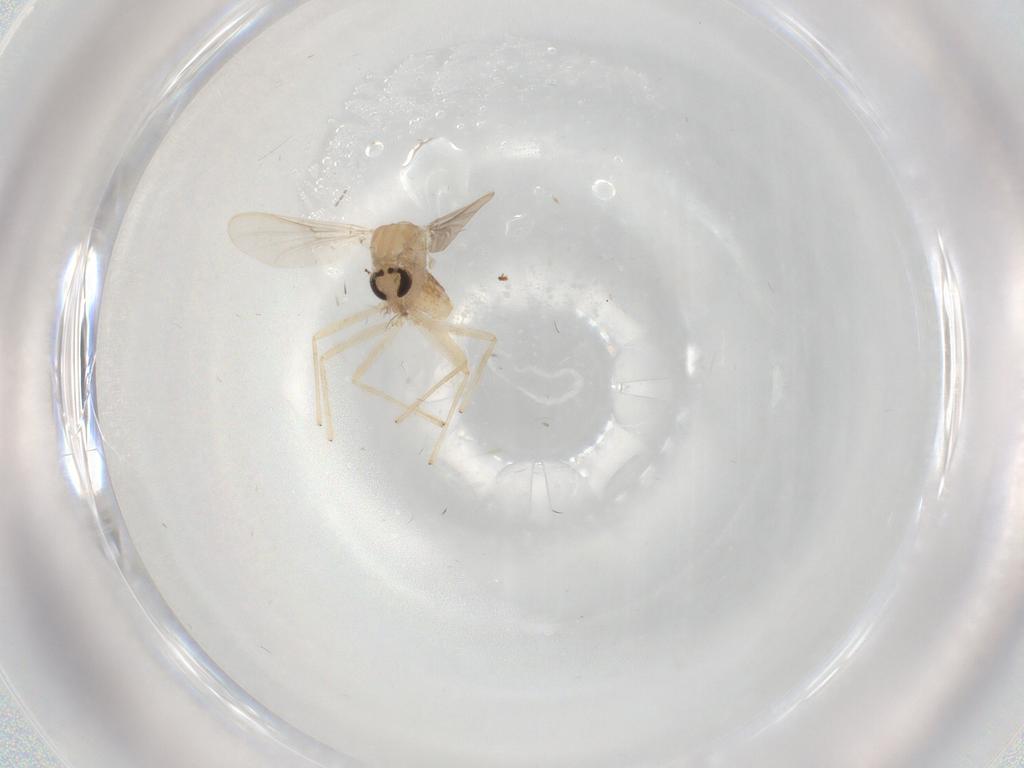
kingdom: Animalia
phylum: Arthropoda
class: Insecta
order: Diptera
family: Chironomidae
